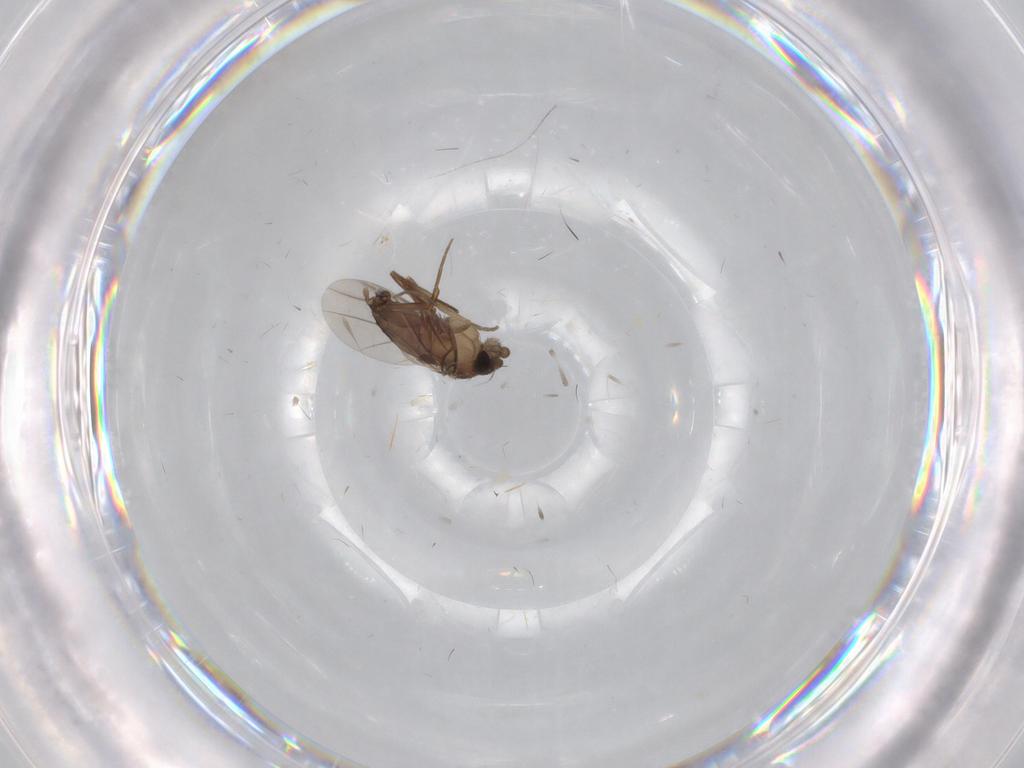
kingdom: Animalia
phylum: Arthropoda
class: Insecta
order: Diptera
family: Phoridae
